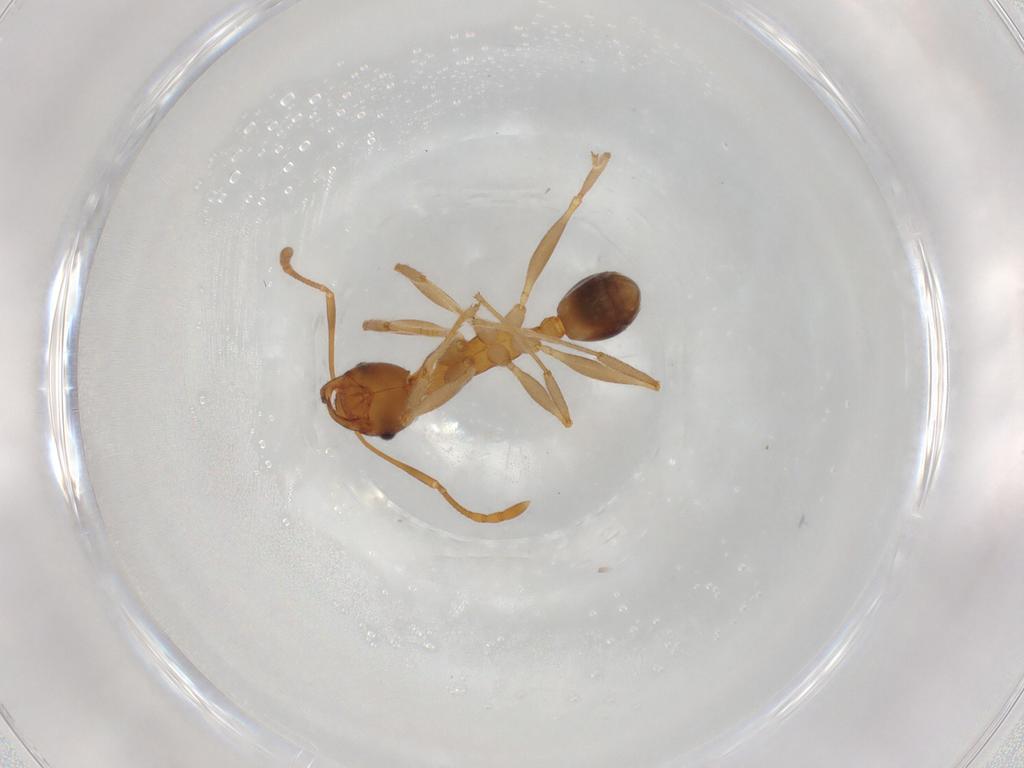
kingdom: Animalia
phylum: Arthropoda
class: Insecta
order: Hymenoptera
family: Formicidae
